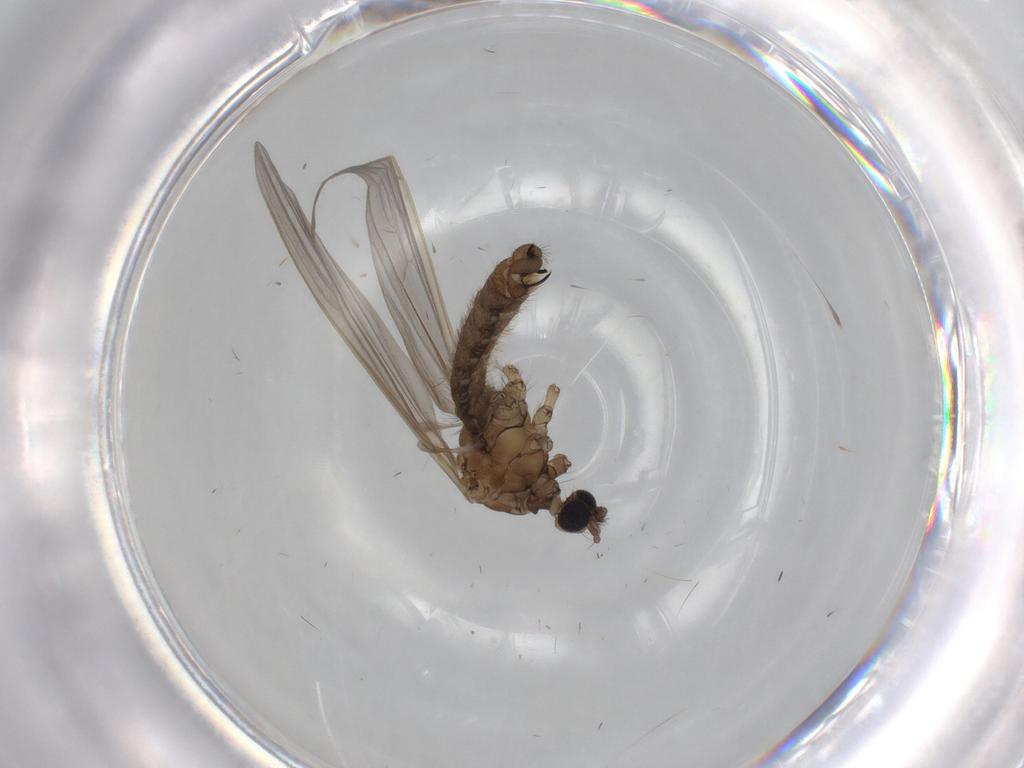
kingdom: Animalia
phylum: Arthropoda
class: Insecta
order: Diptera
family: Limoniidae
